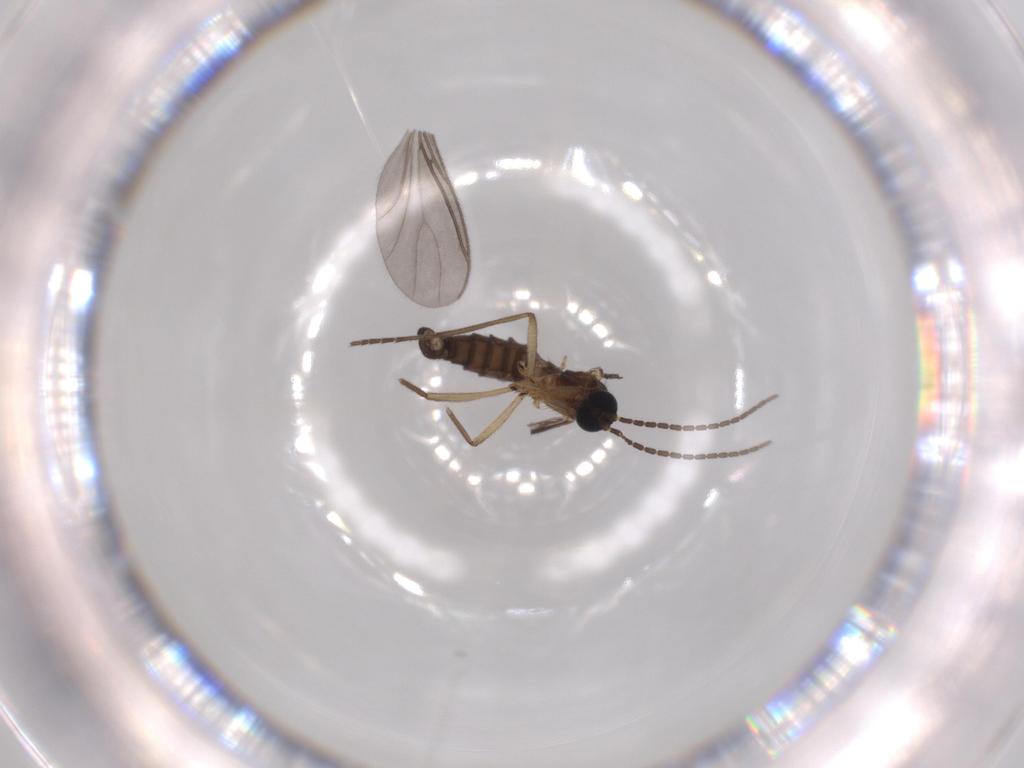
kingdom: Animalia
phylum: Arthropoda
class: Insecta
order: Diptera
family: Sciaridae
